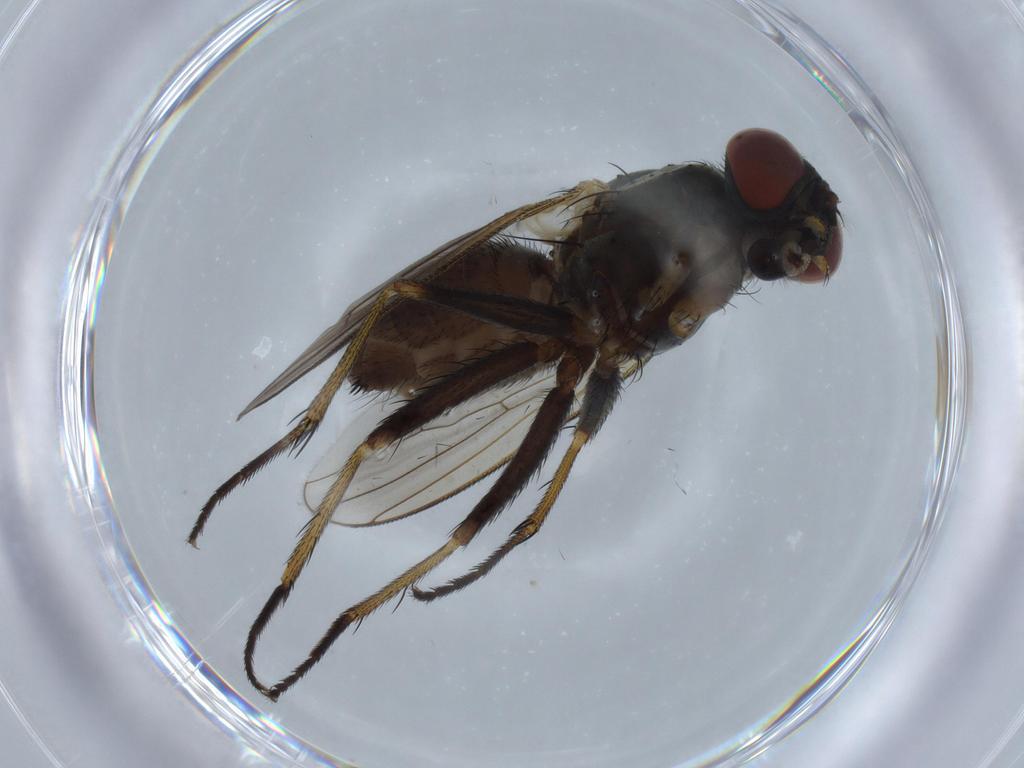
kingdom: Animalia
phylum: Arthropoda
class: Insecta
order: Diptera
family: Muscidae
